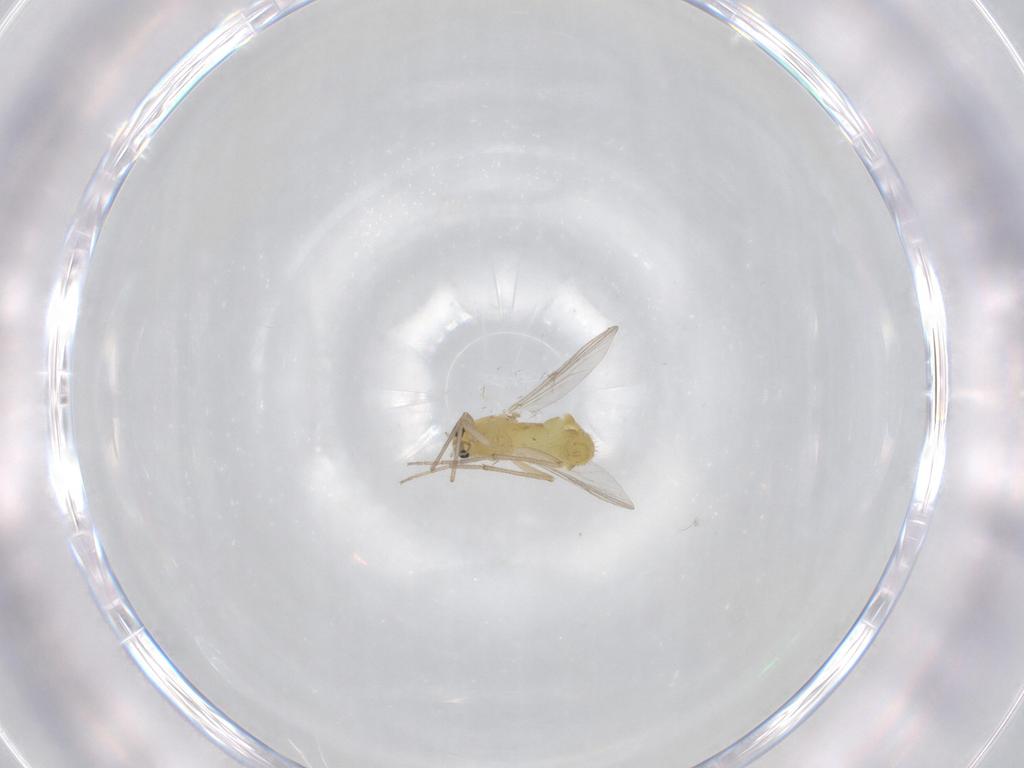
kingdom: Animalia
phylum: Arthropoda
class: Insecta
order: Diptera
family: Chironomidae
